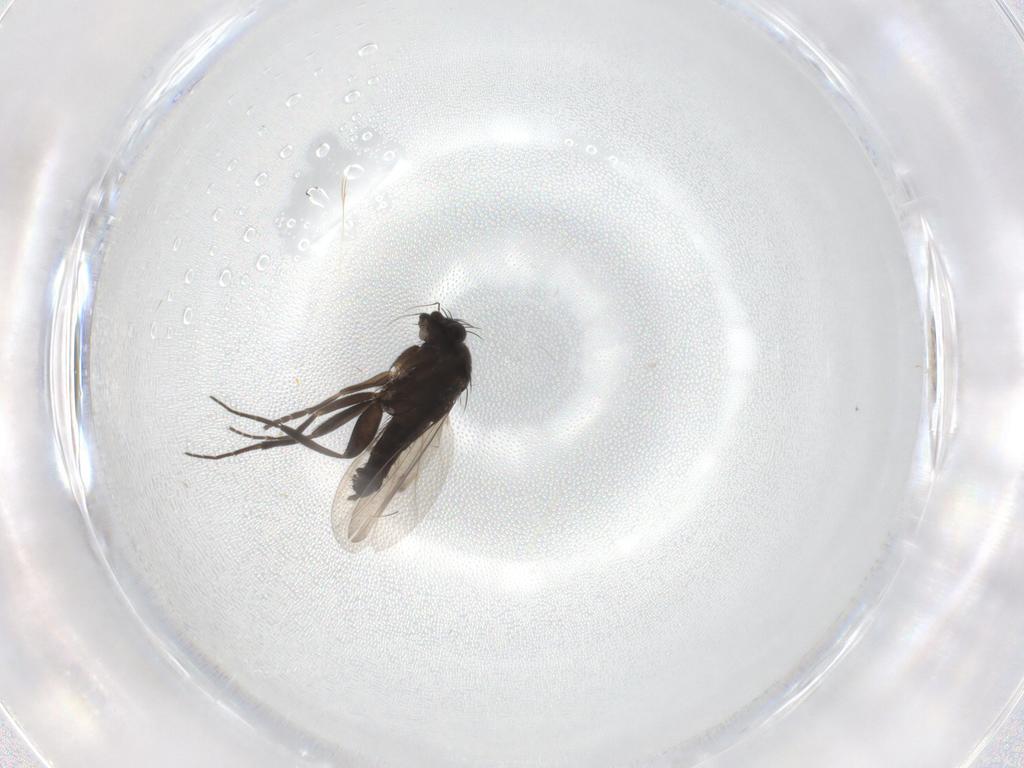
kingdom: Animalia
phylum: Arthropoda
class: Insecta
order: Diptera
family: Phoridae
